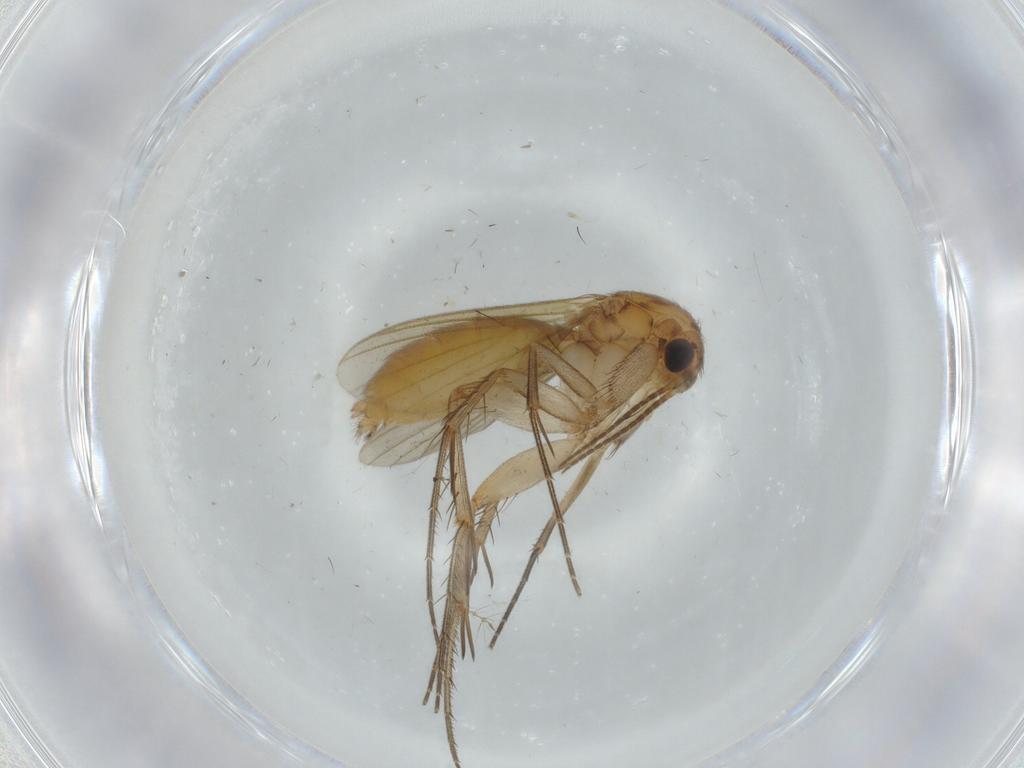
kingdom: Animalia
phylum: Arthropoda
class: Insecta
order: Diptera
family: Mycetophilidae
